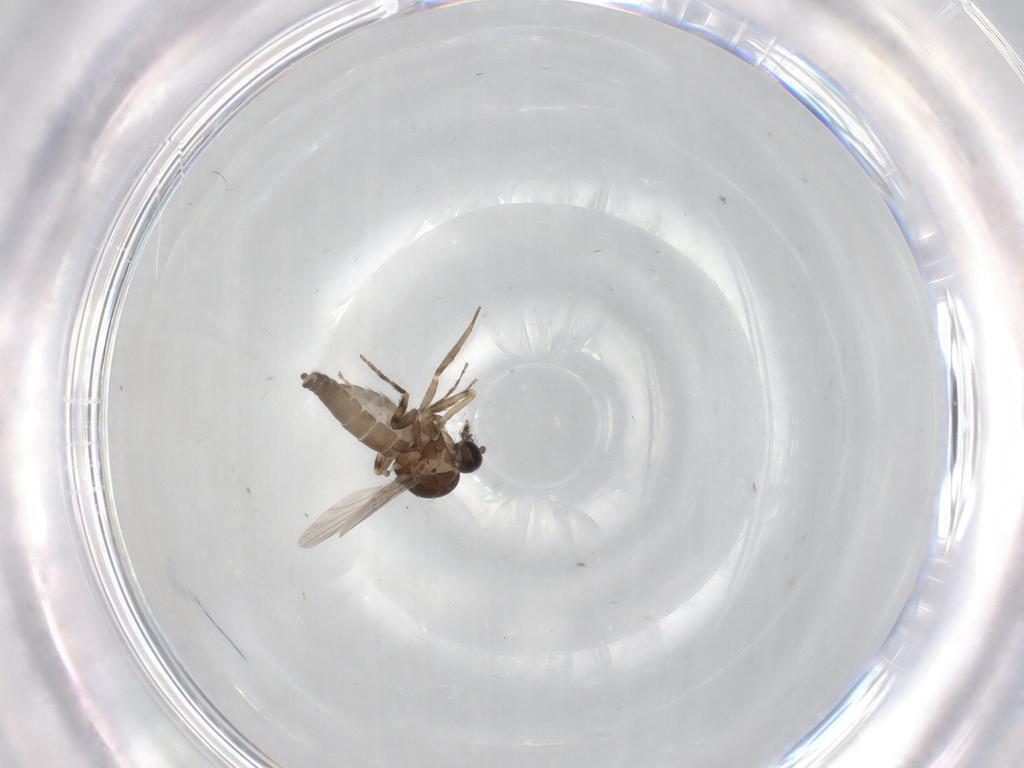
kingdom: Animalia
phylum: Arthropoda
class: Insecta
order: Diptera
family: Ceratopogonidae
